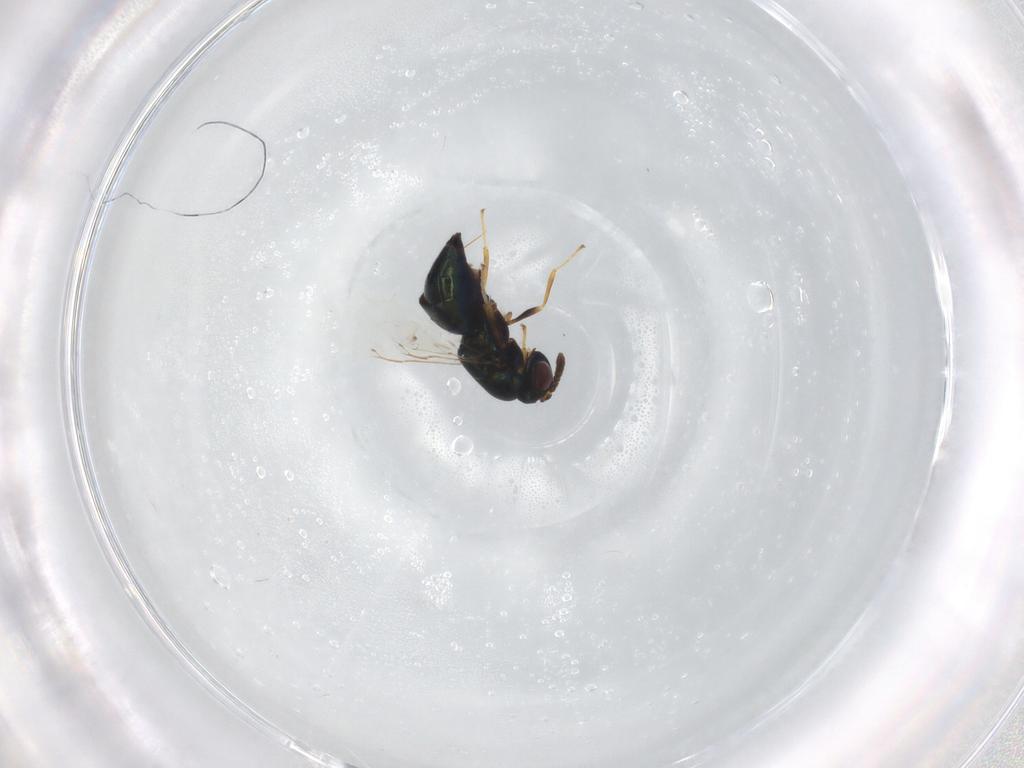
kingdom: Animalia
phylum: Arthropoda
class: Insecta
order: Hymenoptera
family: Pteromalidae
